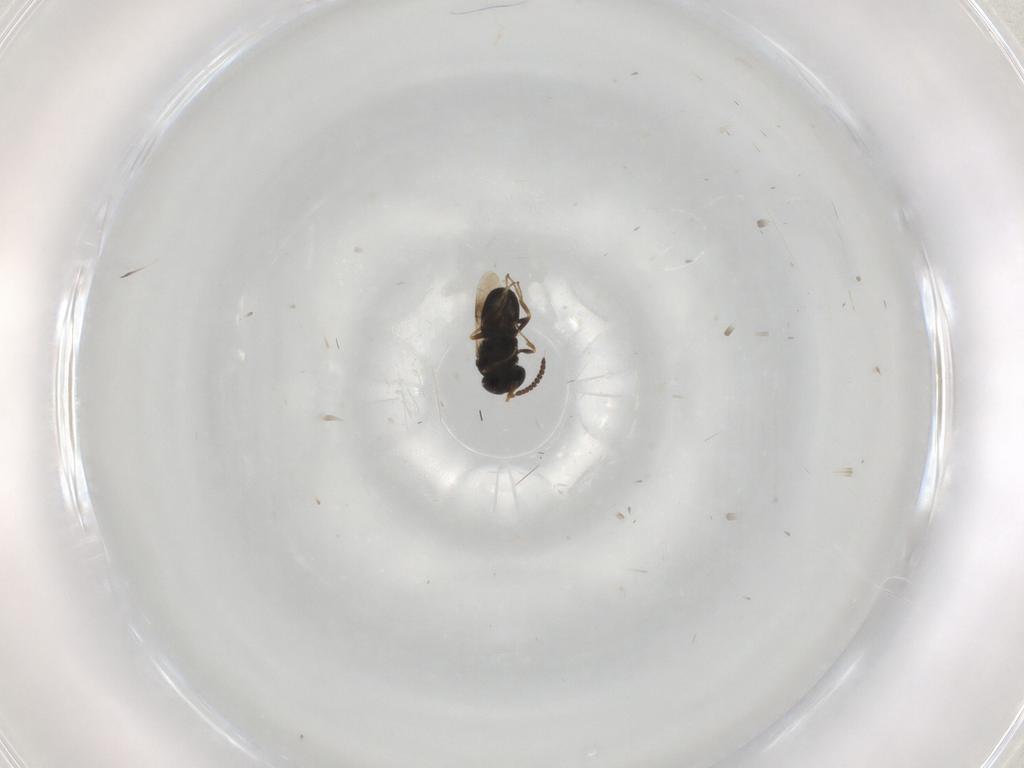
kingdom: Animalia
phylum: Arthropoda
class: Insecta
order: Hymenoptera
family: Scelionidae
